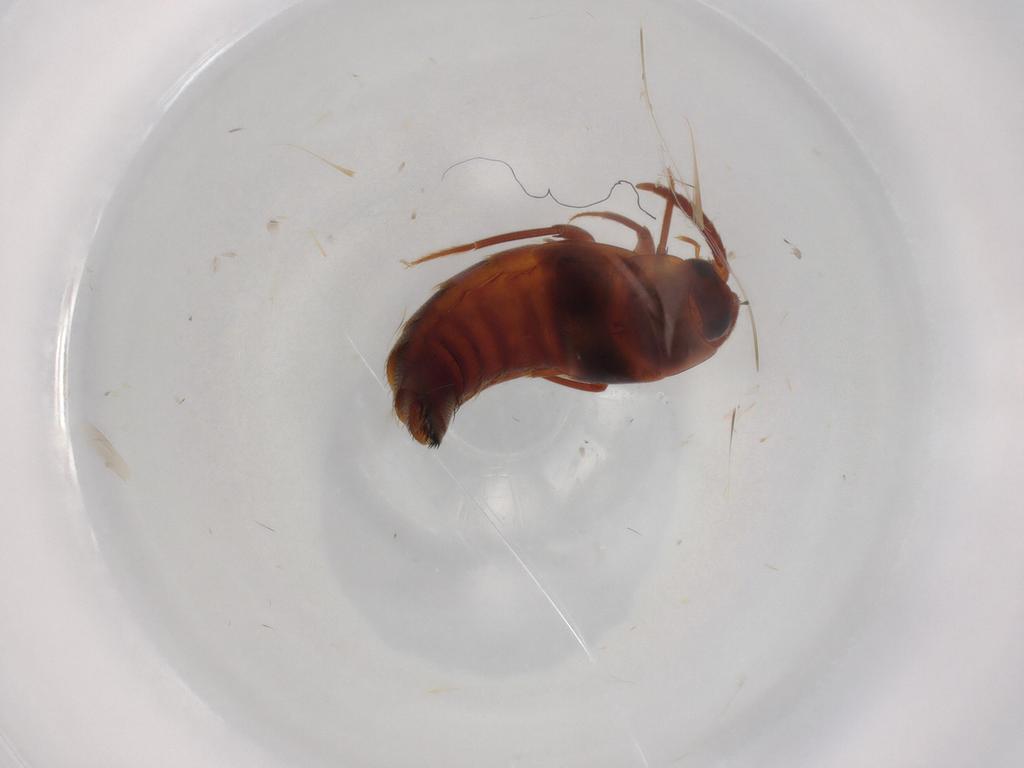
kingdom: Animalia
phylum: Arthropoda
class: Insecta
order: Coleoptera
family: Staphylinidae
